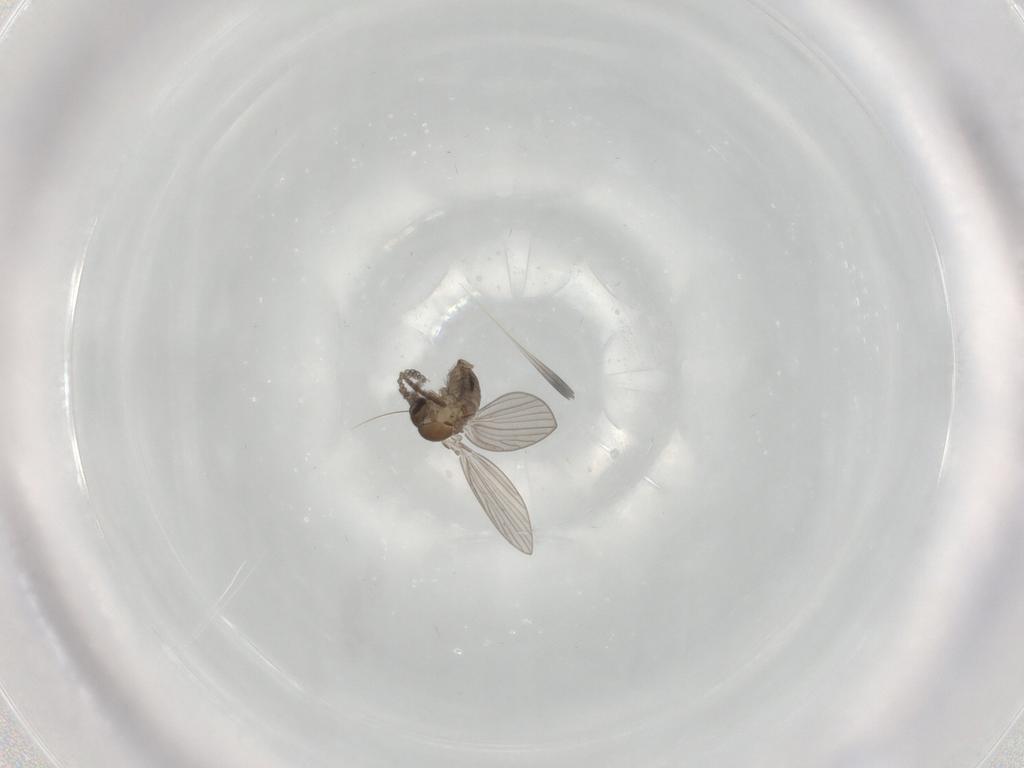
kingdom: Animalia
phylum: Arthropoda
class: Insecta
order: Diptera
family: Psychodidae
